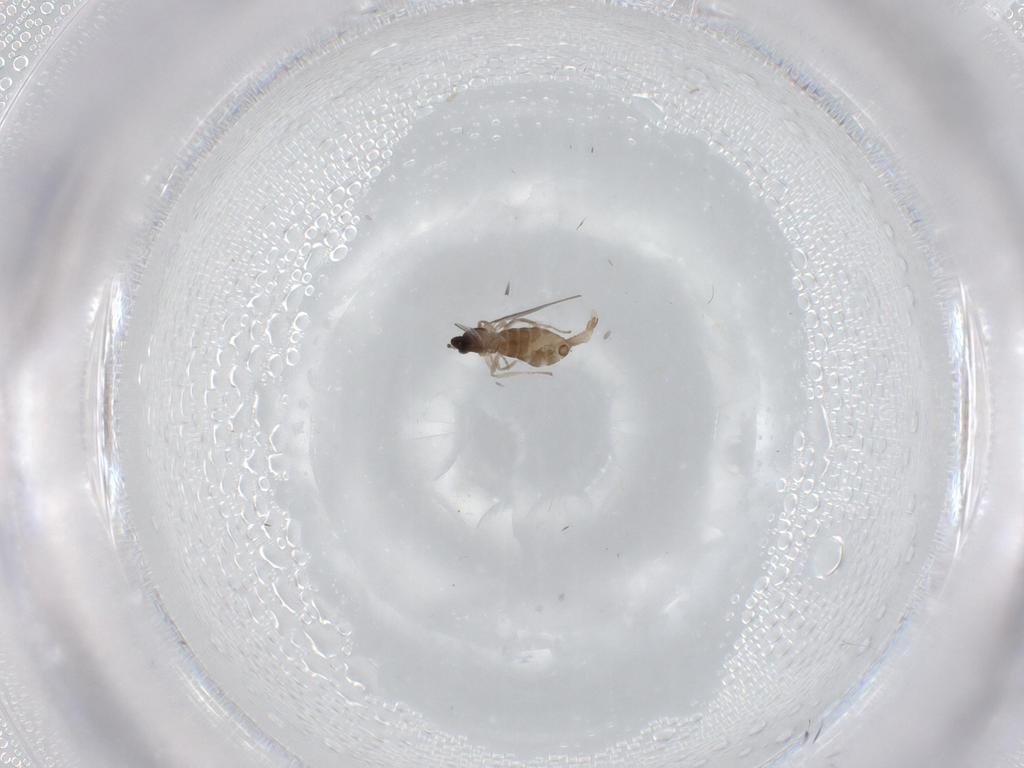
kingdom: Animalia
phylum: Arthropoda
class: Insecta
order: Diptera
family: Cecidomyiidae
